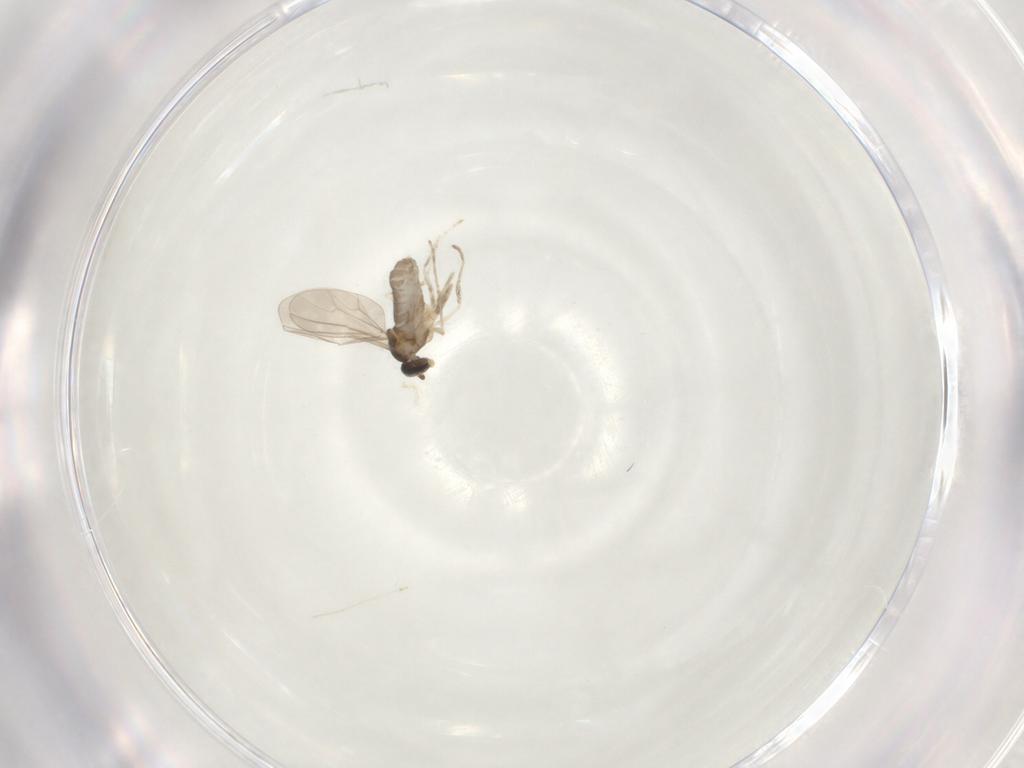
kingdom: Animalia
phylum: Arthropoda
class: Insecta
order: Diptera
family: Cecidomyiidae
